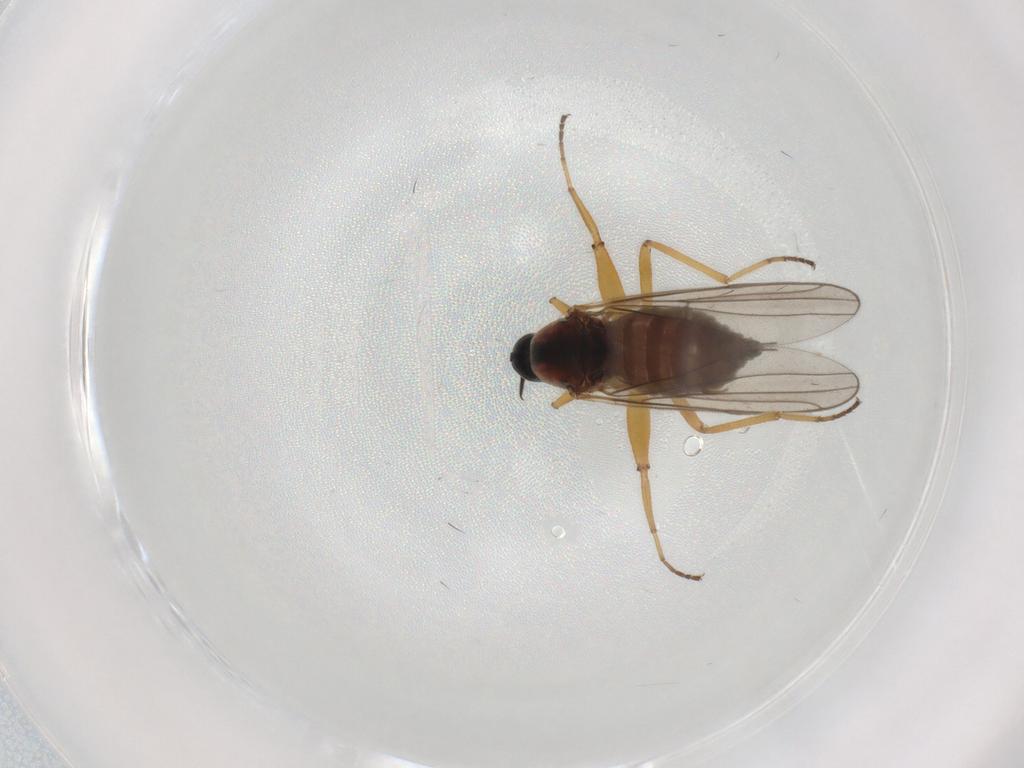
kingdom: Animalia
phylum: Arthropoda
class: Insecta
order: Diptera
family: Hybotidae
